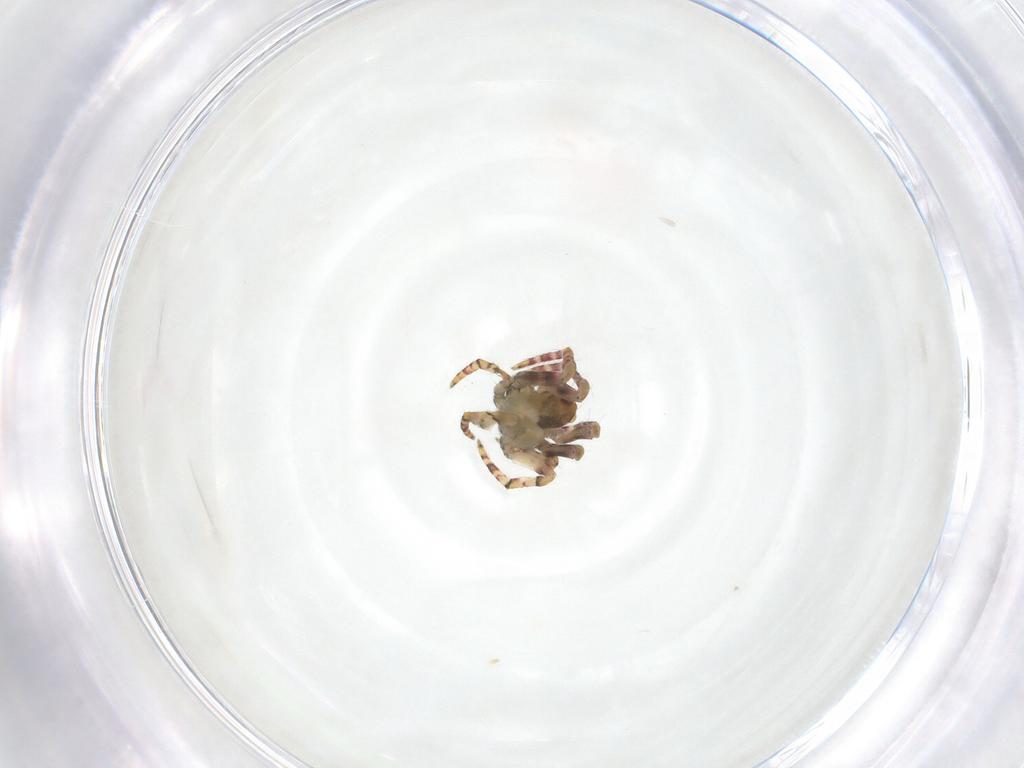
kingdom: Animalia
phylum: Arthropoda
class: Arachnida
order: Araneae
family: Araneidae
